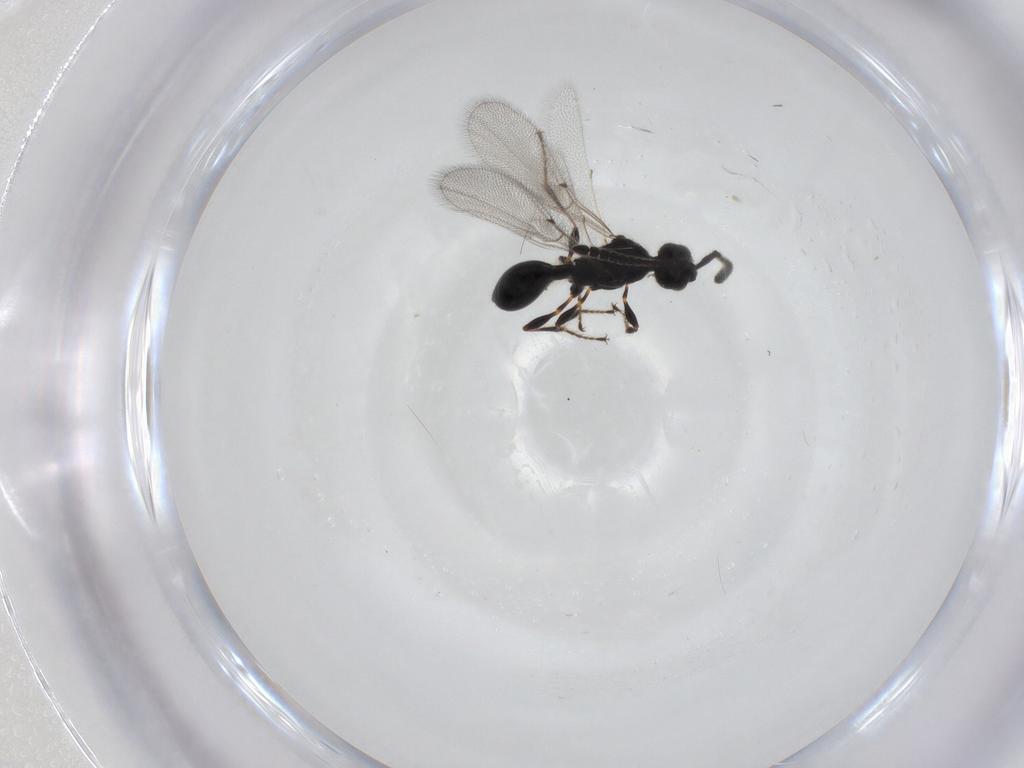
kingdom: Animalia
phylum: Arthropoda
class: Insecta
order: Hymenoptera
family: Diapriidae
